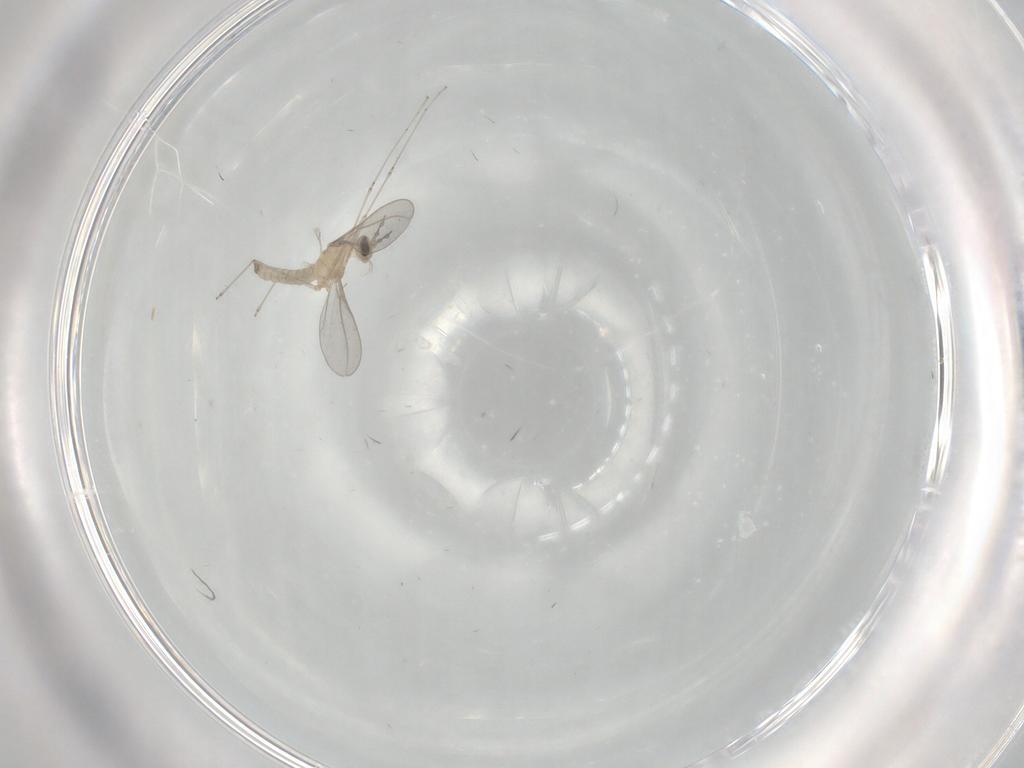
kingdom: Animalia
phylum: Arthropoda
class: Insecta
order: Diptera
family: Cecidomyiidae
